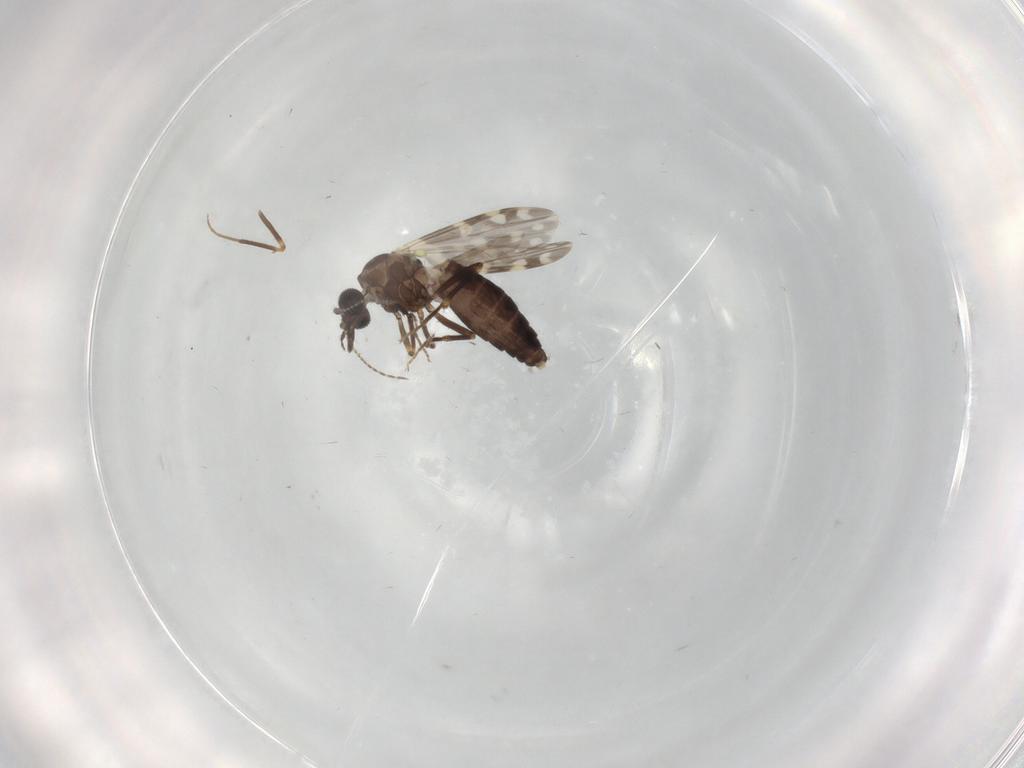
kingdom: Animalia
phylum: Arthropoda
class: Insecta
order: Diptera
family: Ceratopogonidae
